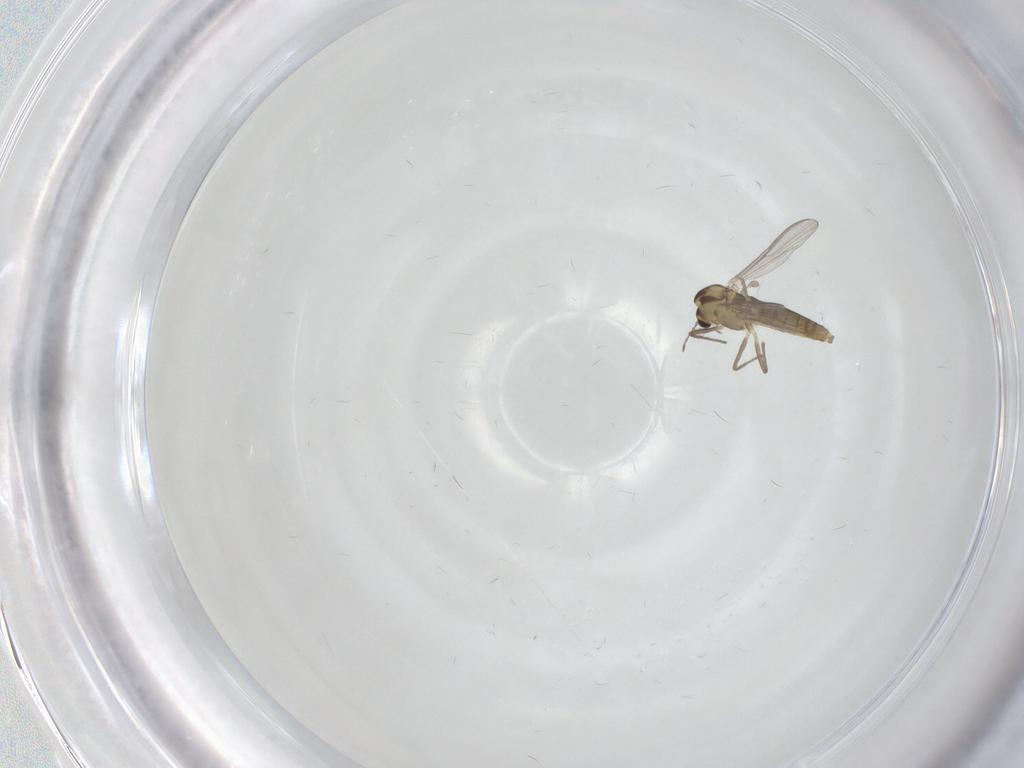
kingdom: Animalia
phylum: Arthropoda
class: Insecta
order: Diptera
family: Chironomidae
